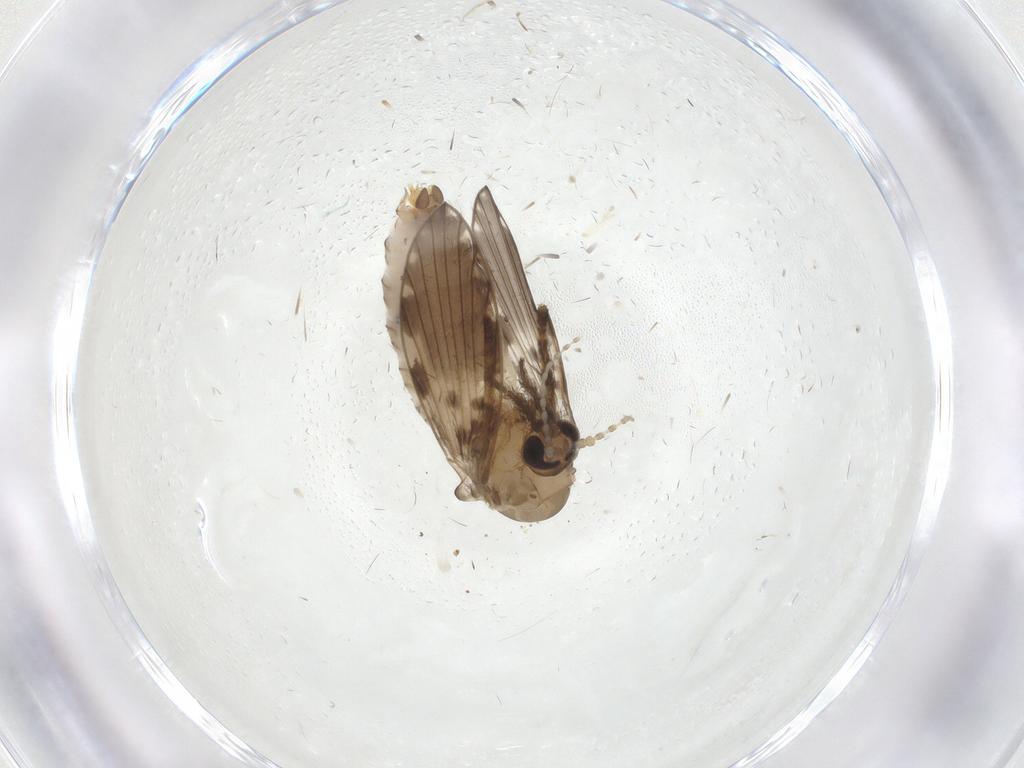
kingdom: Animalia
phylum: Arthropoda
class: Insecta
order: Diptera
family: Psychodidae
